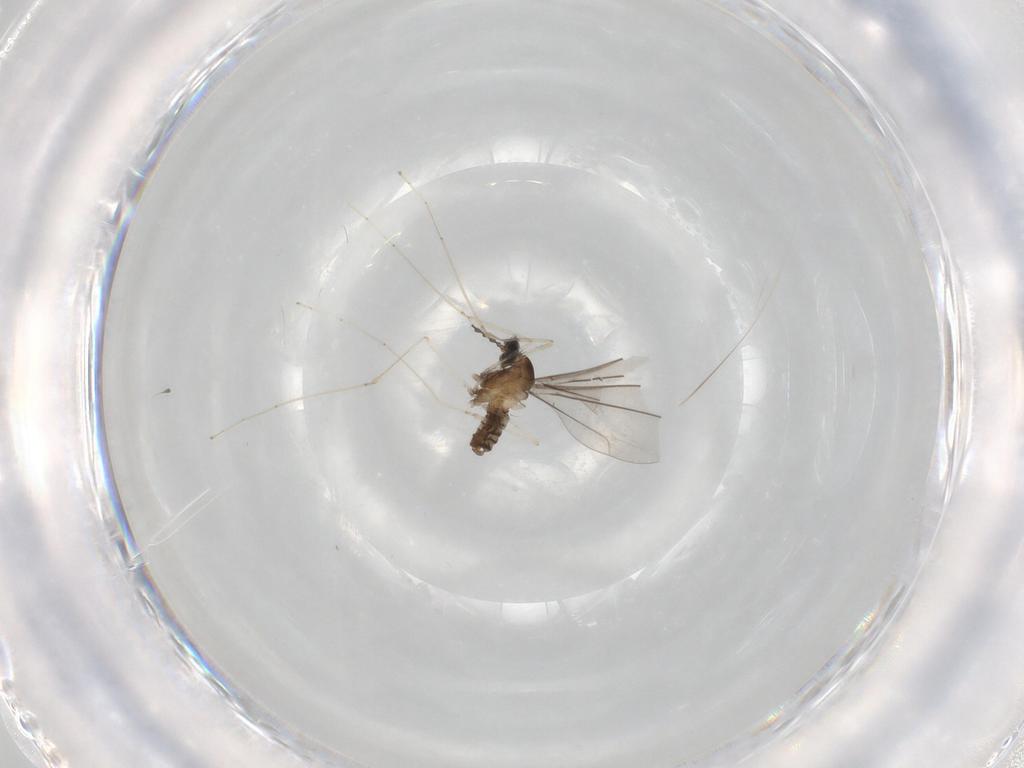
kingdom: Animalia
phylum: Arthropoda
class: Insecta
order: Diptera
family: Cecidomyiidae
